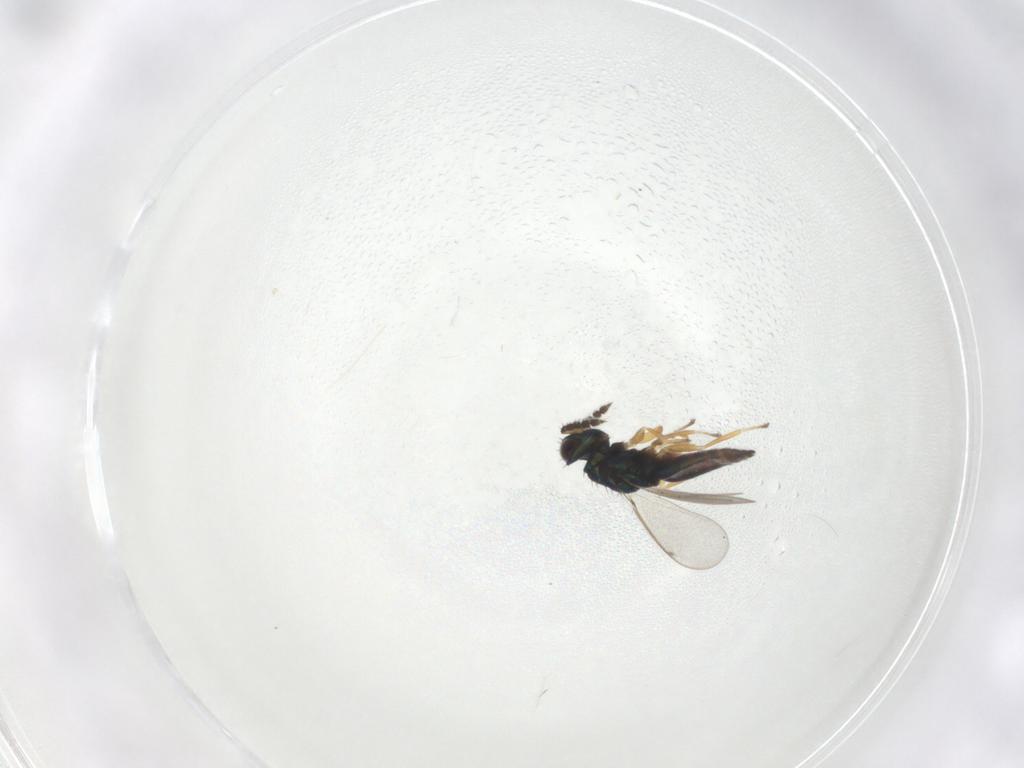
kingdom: Animalia
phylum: Arthropoda
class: Insecta
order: Hymenoptera
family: Eulophidae
